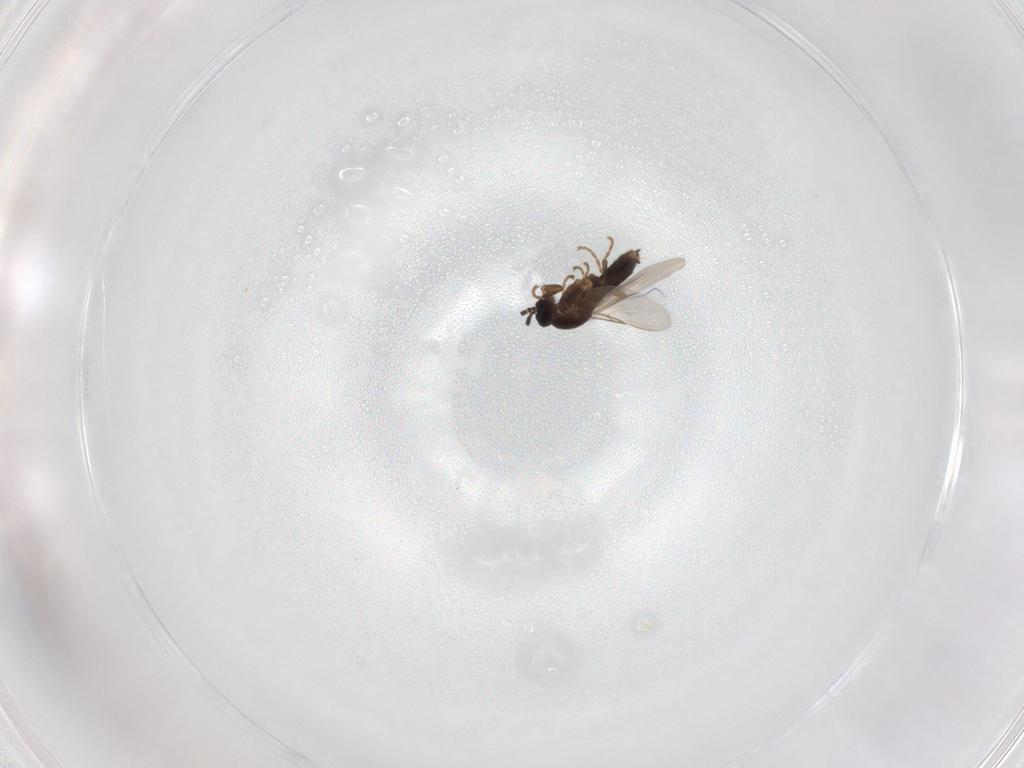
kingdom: Animalia
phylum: Arthropoda
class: Insecta
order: Diptera
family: Scatopsidae
